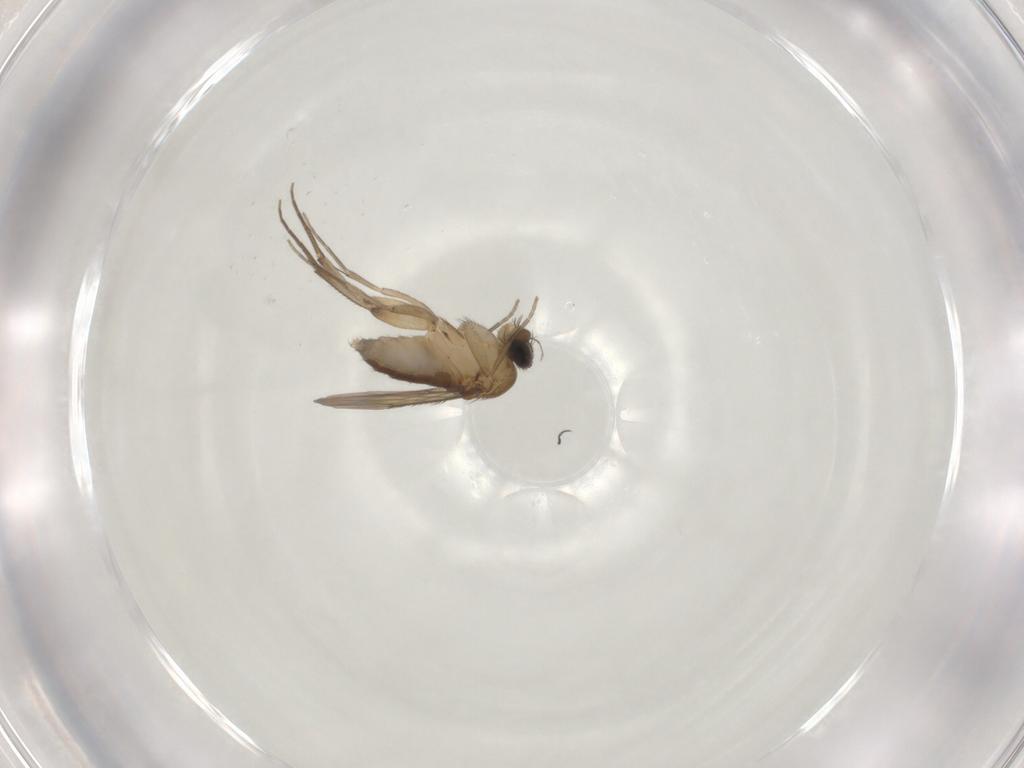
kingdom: Animalia
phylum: Arthropoda
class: Insecta
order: Diptera
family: Phoridae
